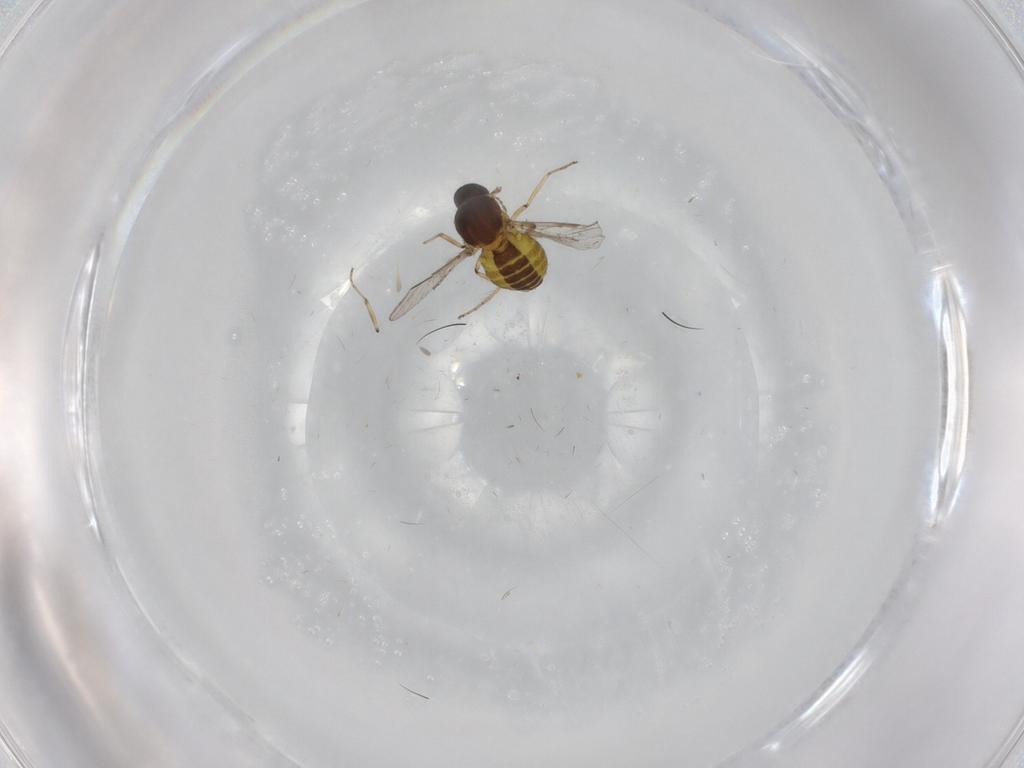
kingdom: Animalia
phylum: Arthropoda
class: Insecta
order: Diptera
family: Ceratopogonidae
